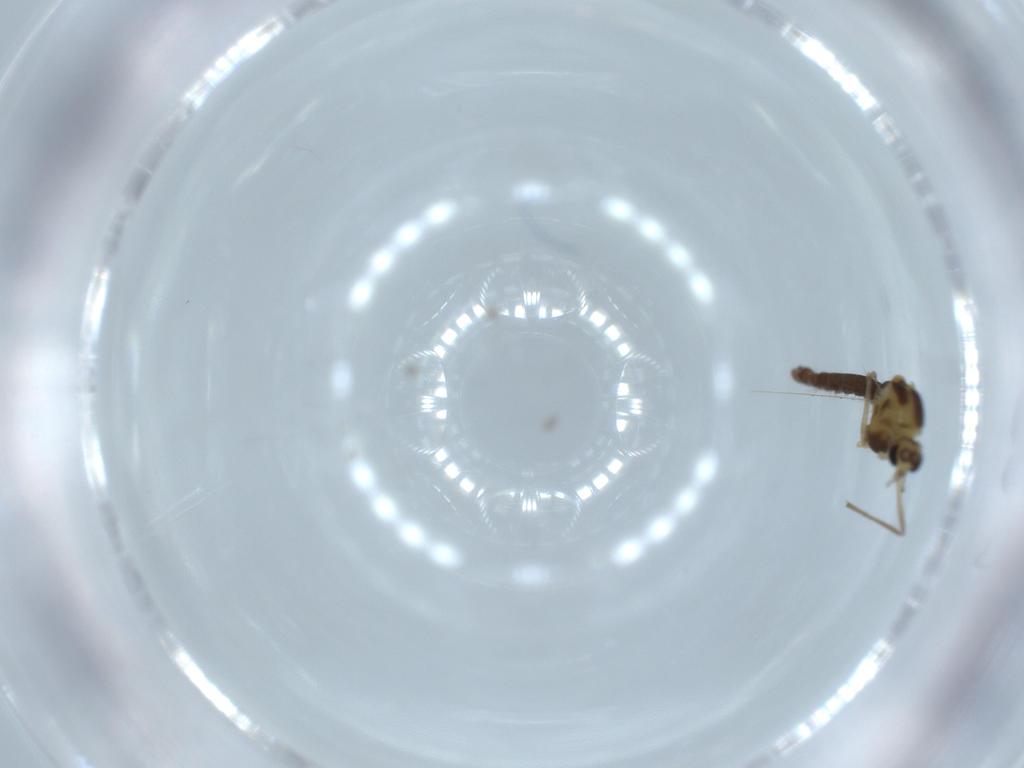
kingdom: Animalia
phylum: Arthropoda
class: Insecta
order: Diptera
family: Chironomidae
